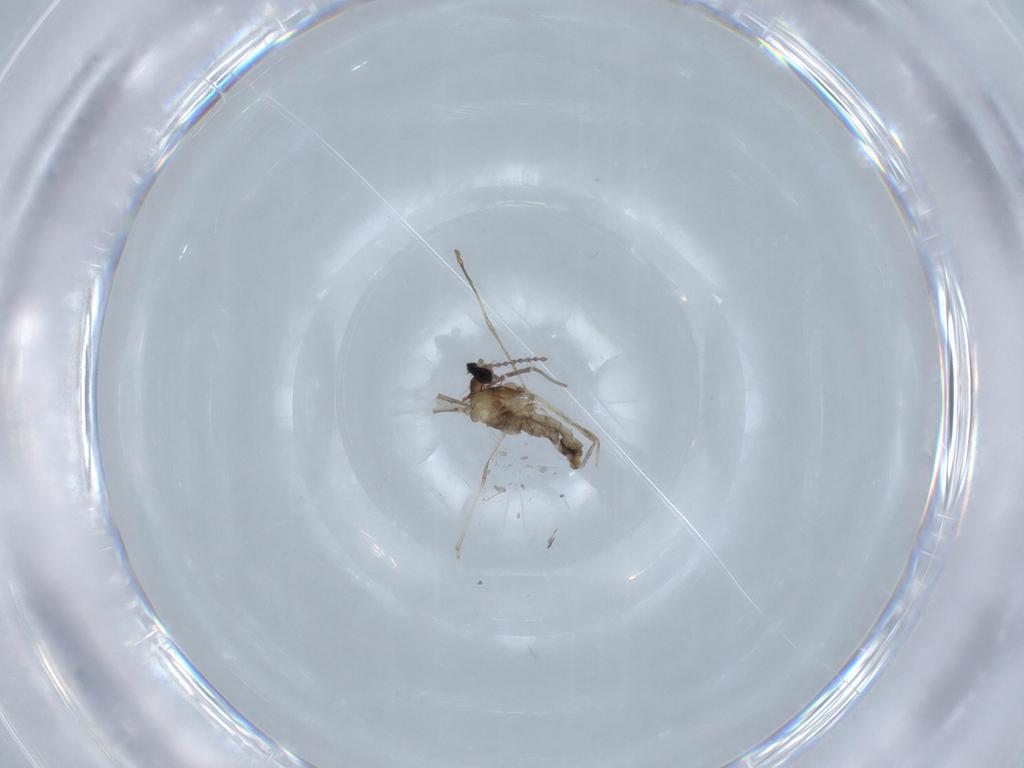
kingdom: Animalia
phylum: Arthropoda
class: Insecta
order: Diptera
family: Cecidomyiidae
